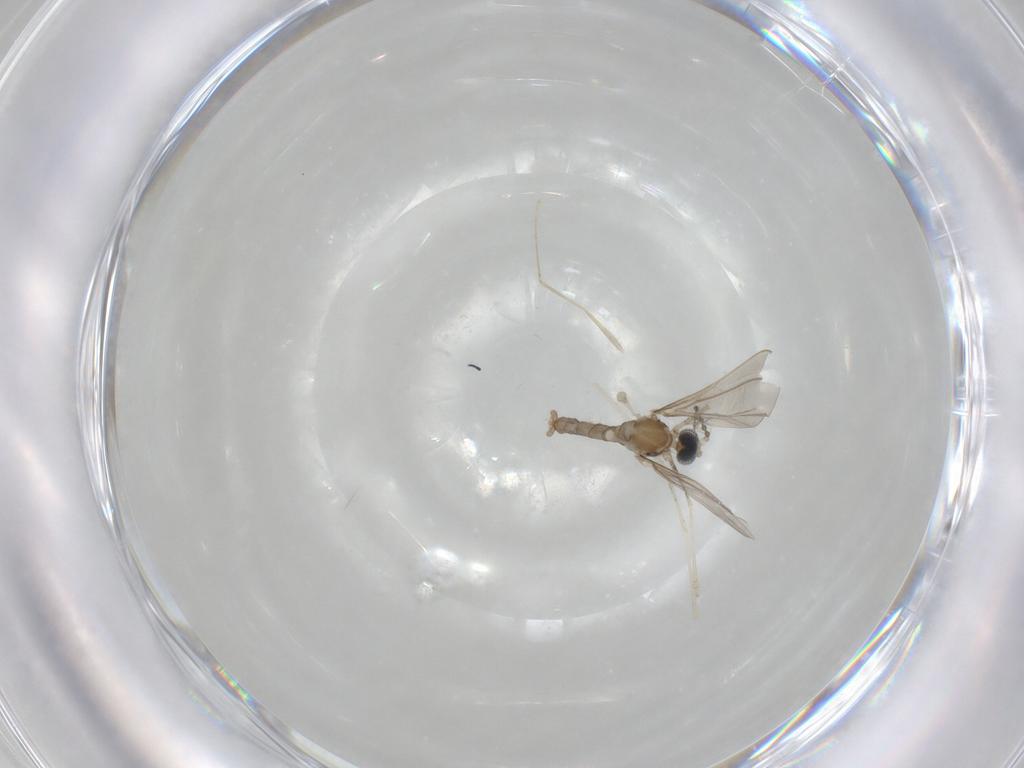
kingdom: Animalia
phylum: Arthropoda
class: Insecta
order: Diptera
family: Cecidomyiidae
